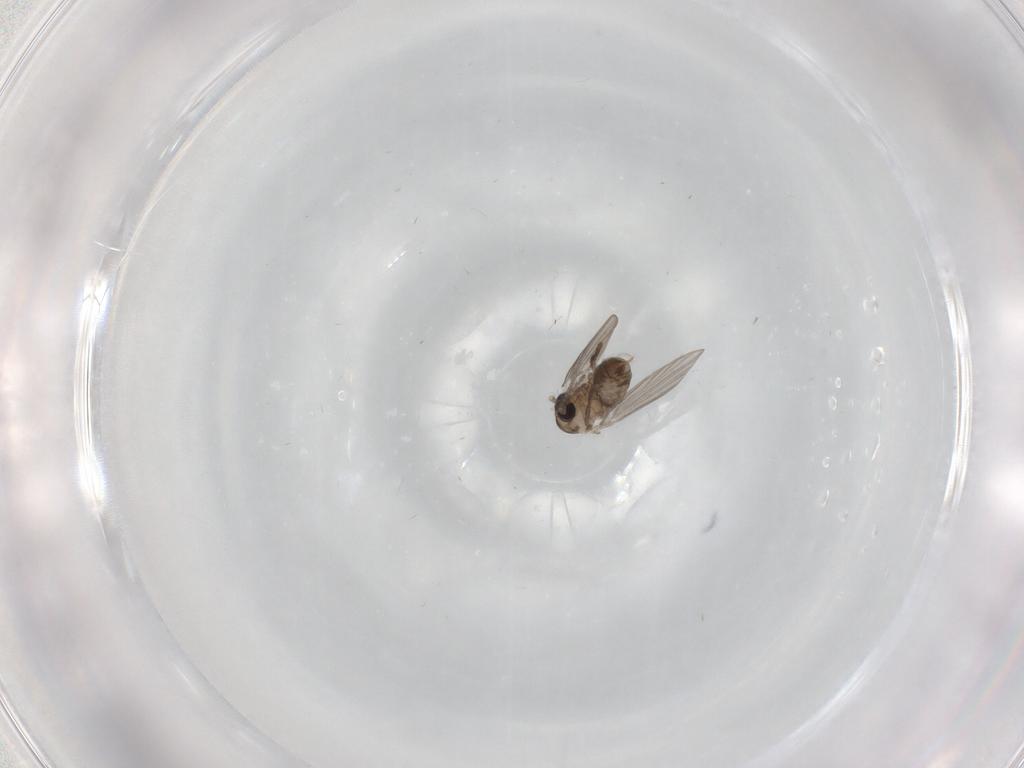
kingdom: Animalia
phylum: Arthropoda
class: Insecta
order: Diptera
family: Psychodidae
